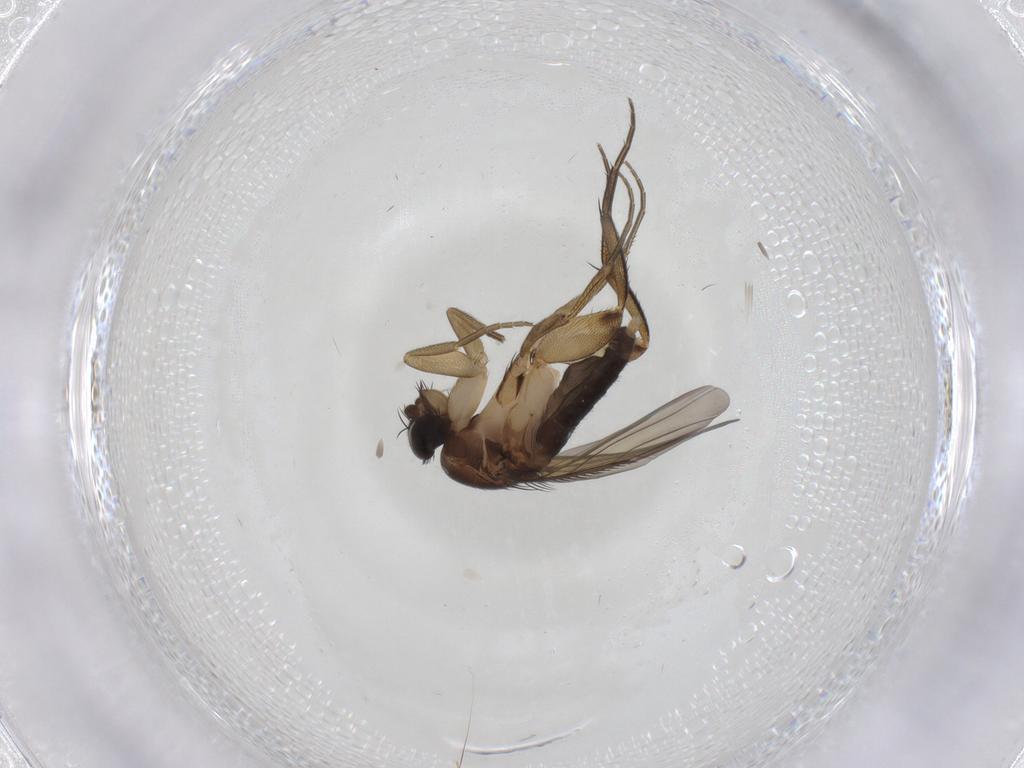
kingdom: Animalia
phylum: Arthropoda
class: Insecta
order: Diptera
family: Phoridae
